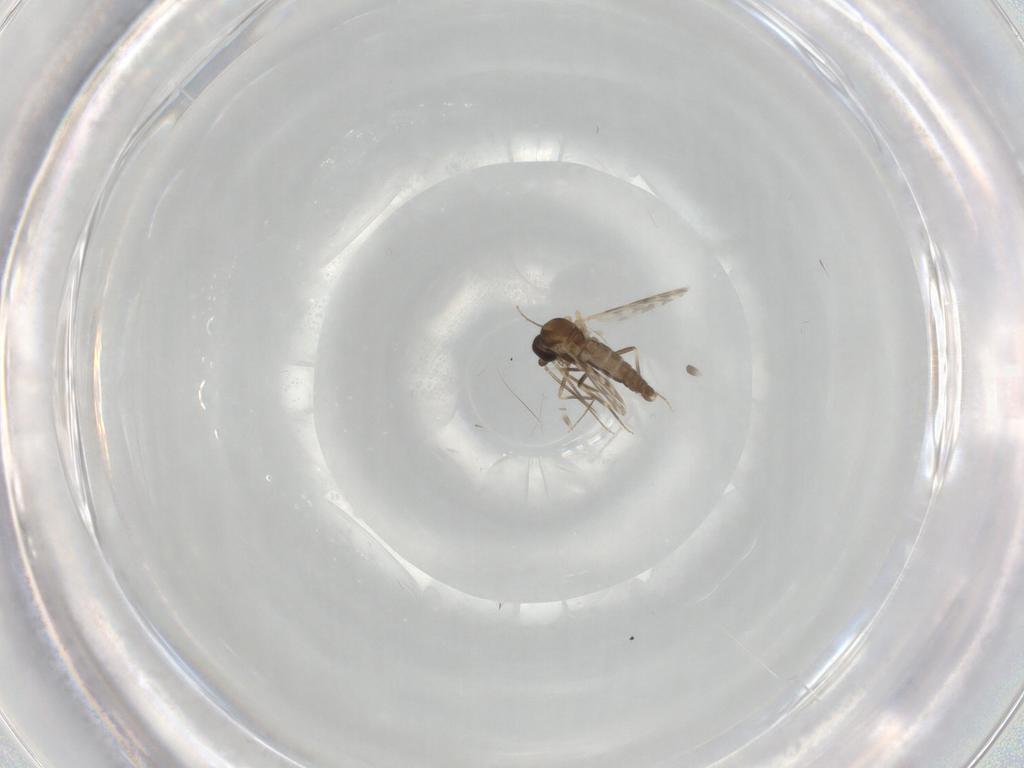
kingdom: Animalia
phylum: Arthropoda
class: Insecta
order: Diptera
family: Ceratopogonidae
